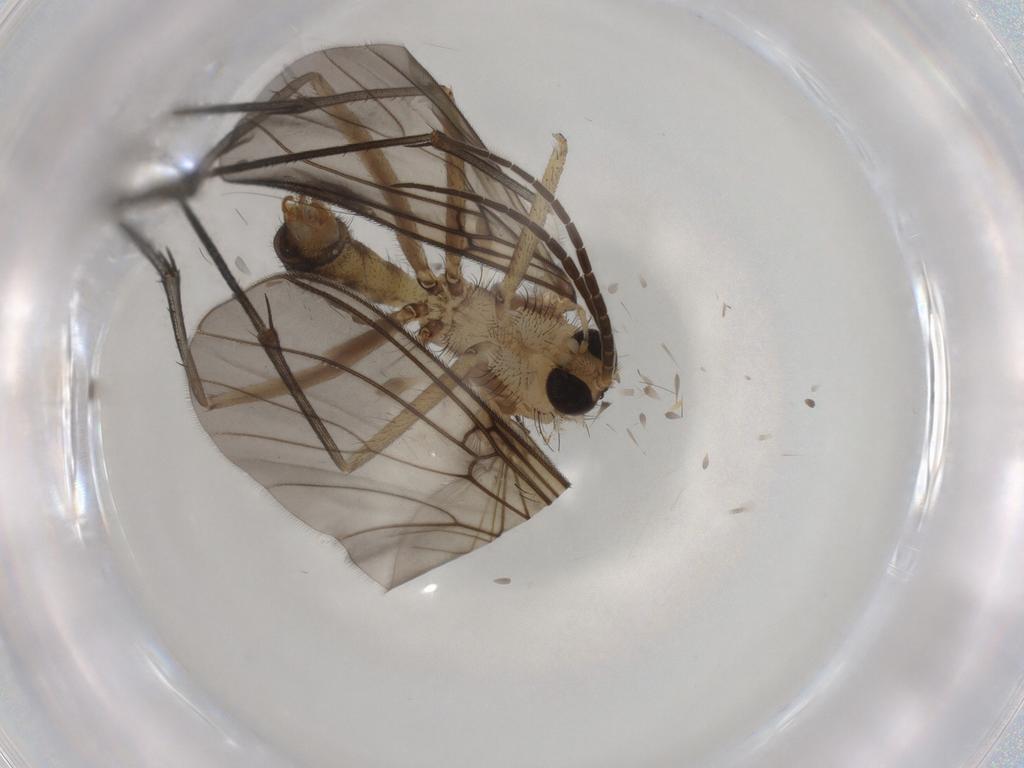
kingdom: Animalia
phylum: Arthropoda
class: Insecta
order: Diptera
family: Mycetophilidae
